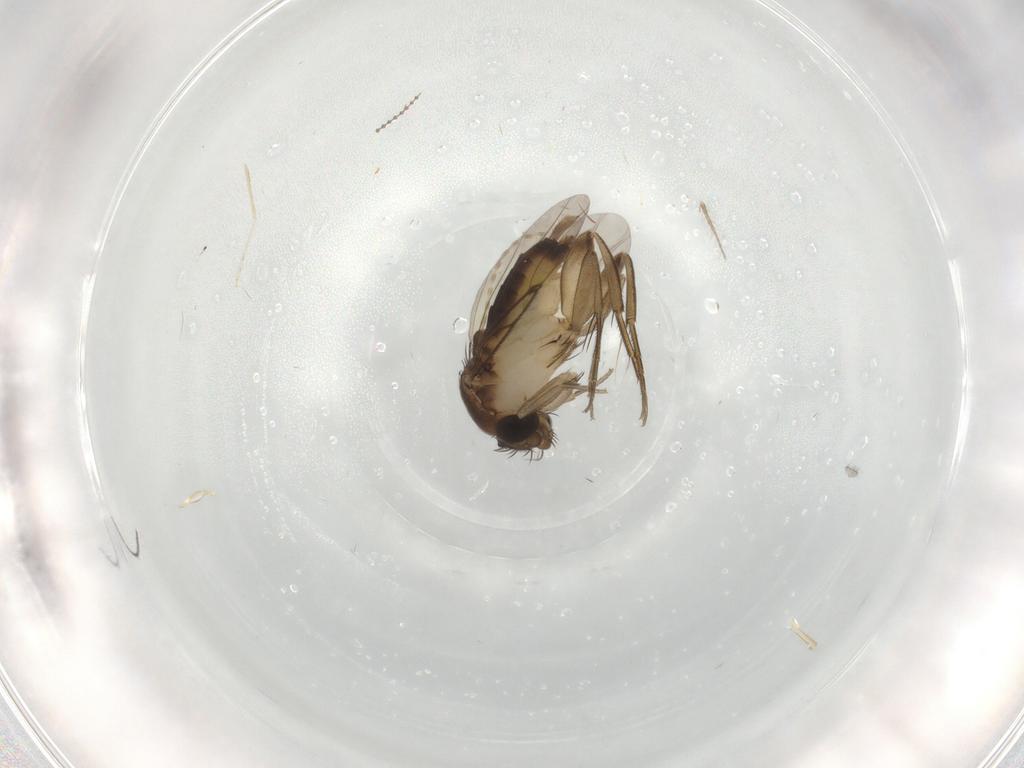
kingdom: Animalia
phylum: Arthropoda
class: Insecta
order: Diptera
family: Phoridae
